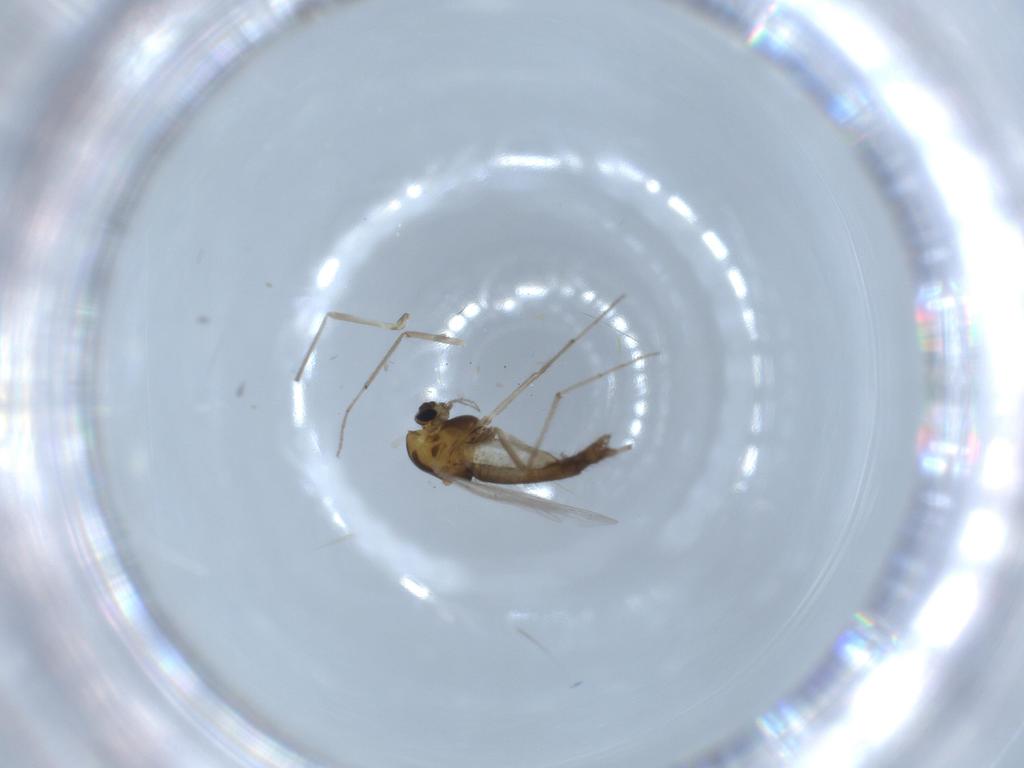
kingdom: Animalia
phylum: Arthropoda
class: Insecta
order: Diptera
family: Chironomidae
